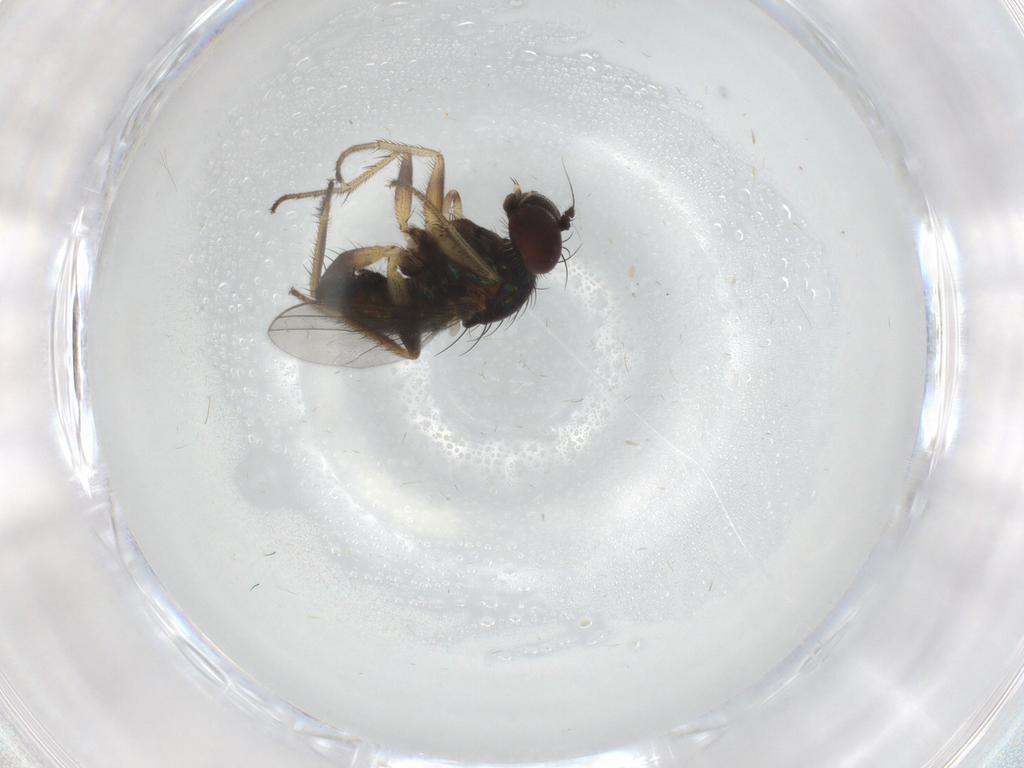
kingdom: Animalia
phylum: Arthropoda
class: Insecta
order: Diptera
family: Dolichopodidae
